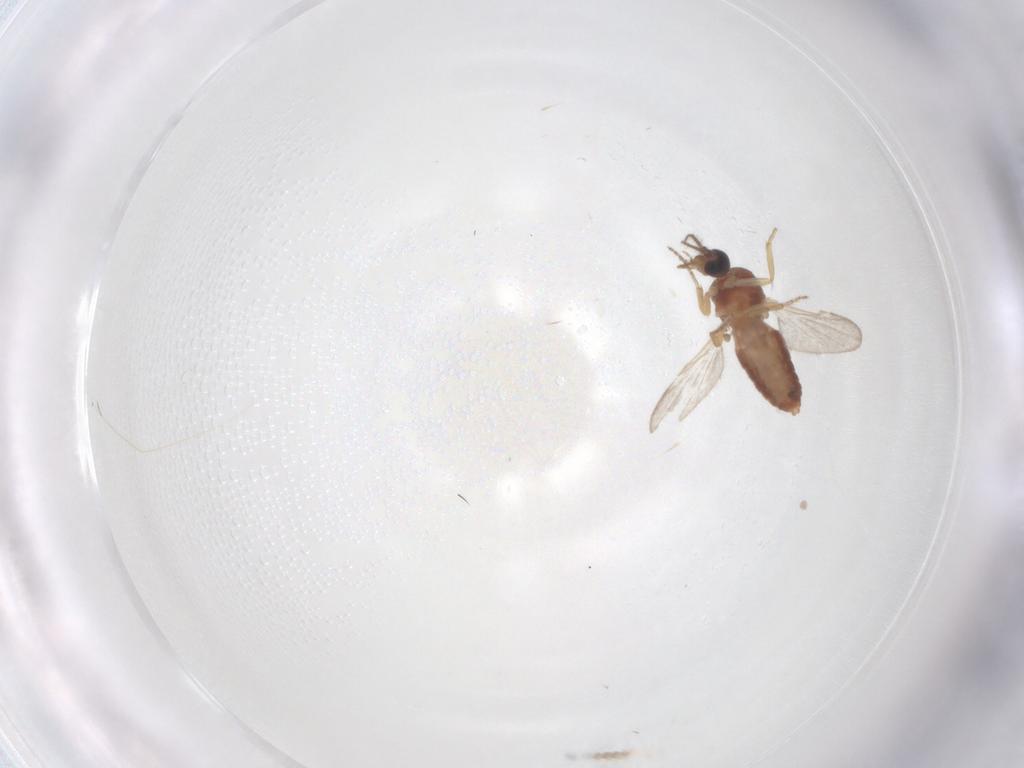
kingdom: Animalia
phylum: Arthropoda
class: Insecta
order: Diptera
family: Ceratopogonidae
